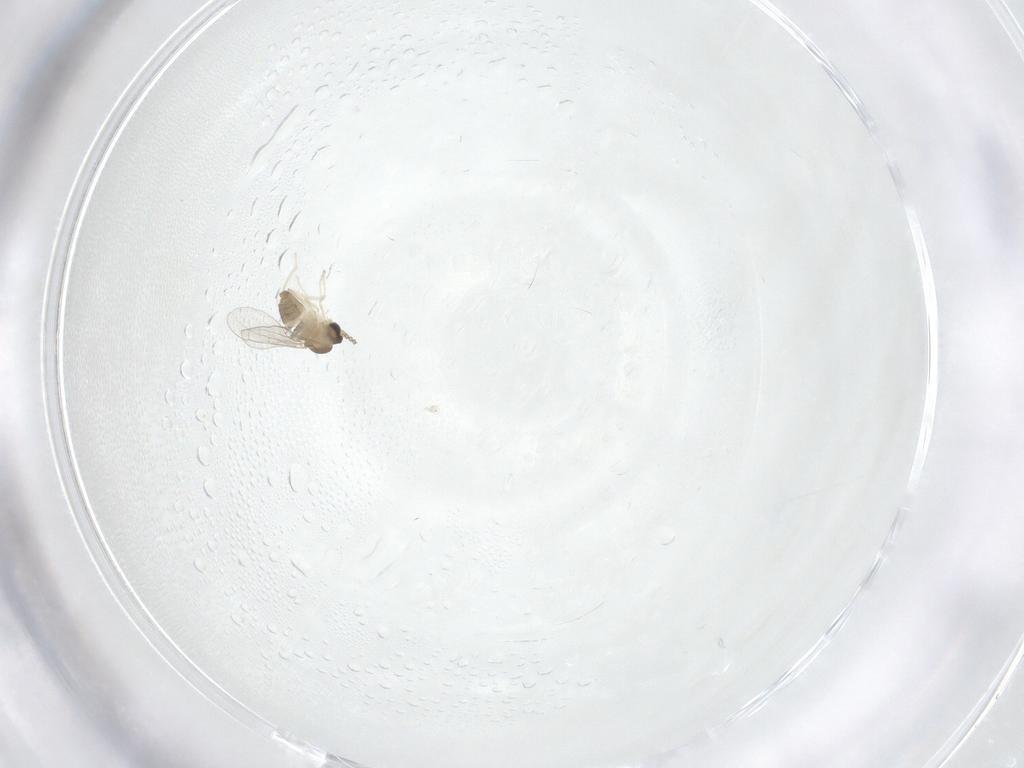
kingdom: Animalia
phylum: Arthropoda
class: Insecta
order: Diptera
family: Cecidomyiidae
